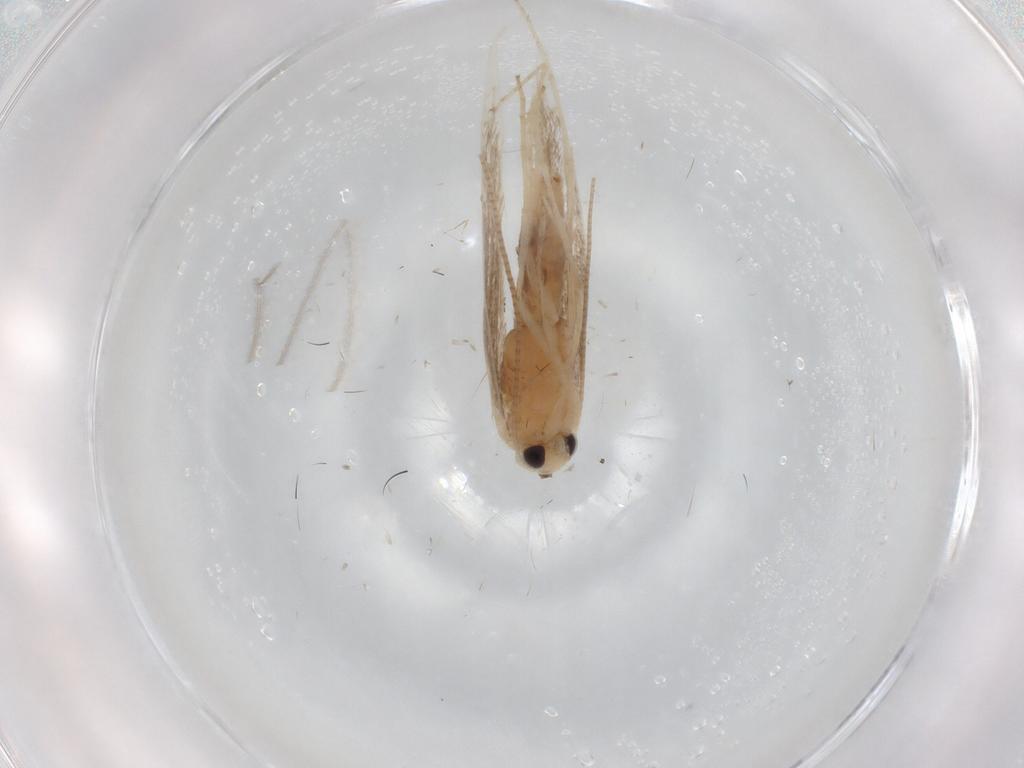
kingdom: Animalia
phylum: Arthropoda
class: Insecta
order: Lepidoptera
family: Gracillariidae
